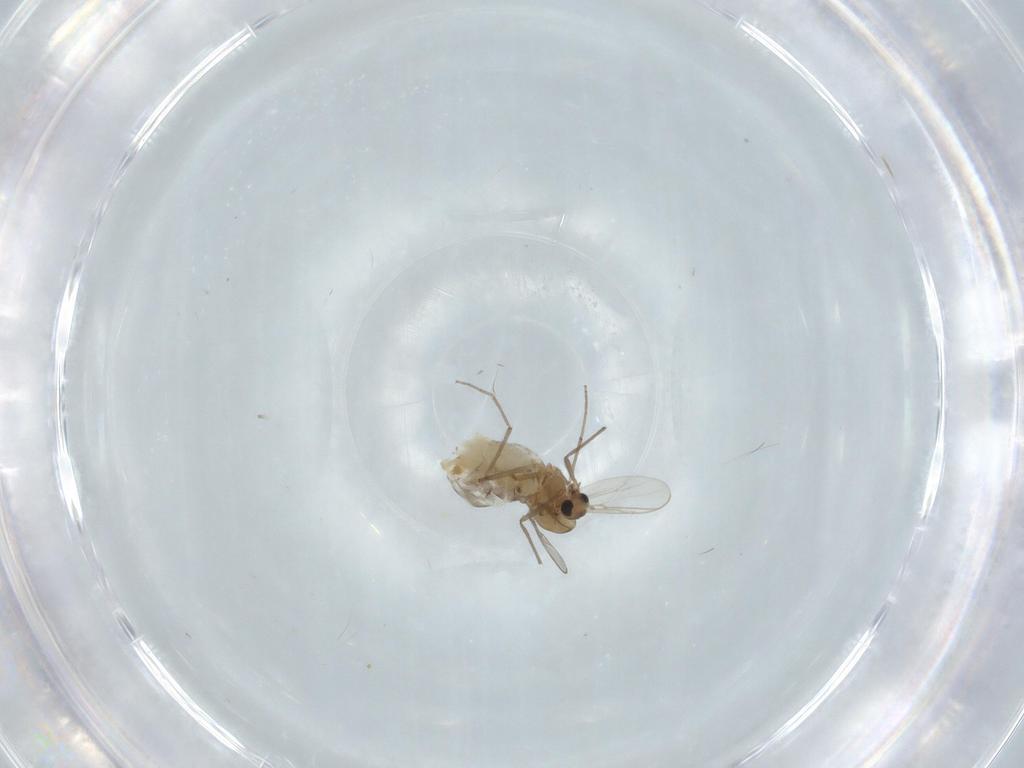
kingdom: Animalia
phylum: Arthropoda
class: Insecta
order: Diptera
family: Chironomidae
